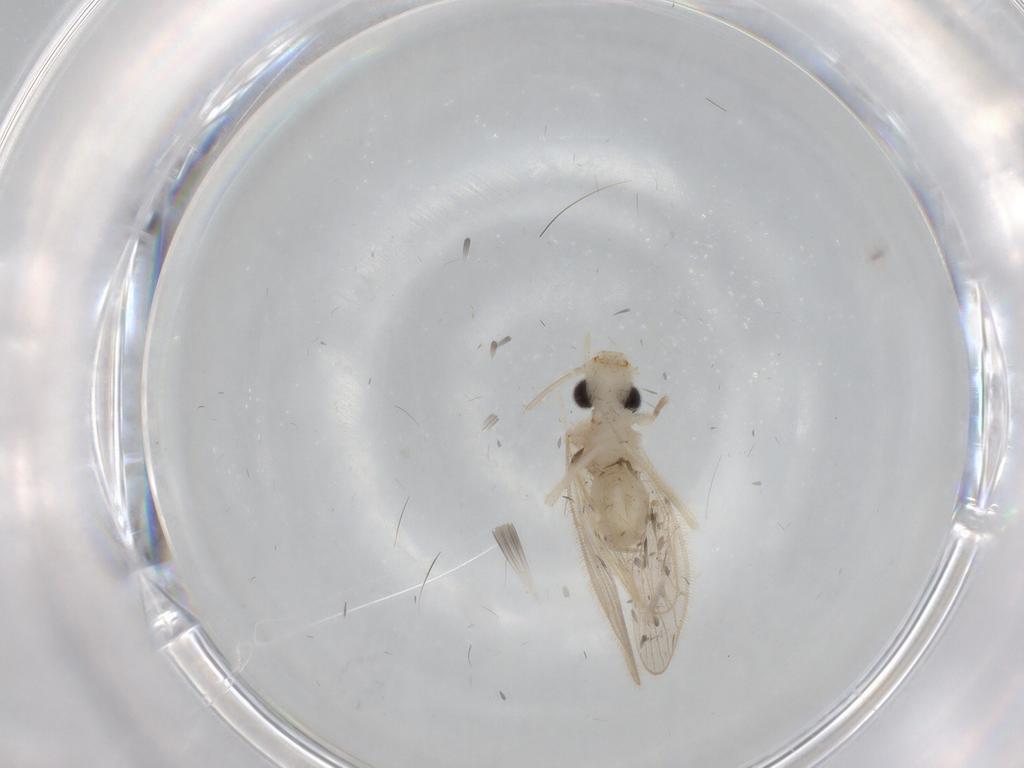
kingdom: Animalia
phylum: Arthropoda
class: Insecta
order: Psocodea
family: Cladiopsocidae
